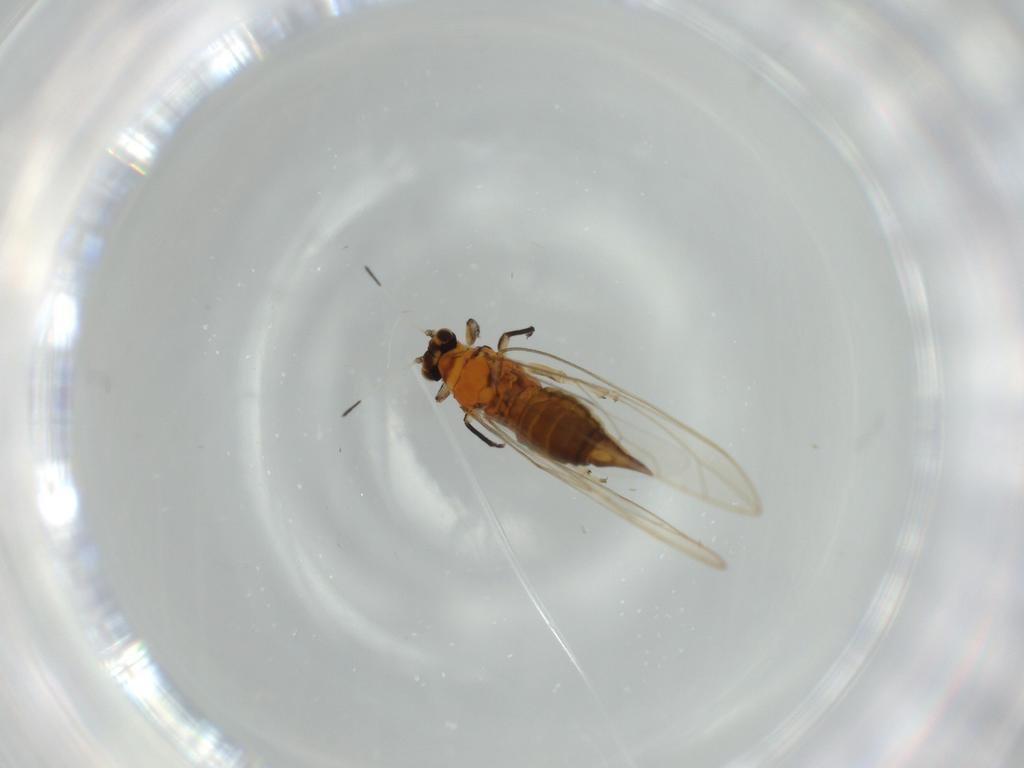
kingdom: Animalia
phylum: Arthropoda
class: Insecta
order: Hemiptera
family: Triozidae
